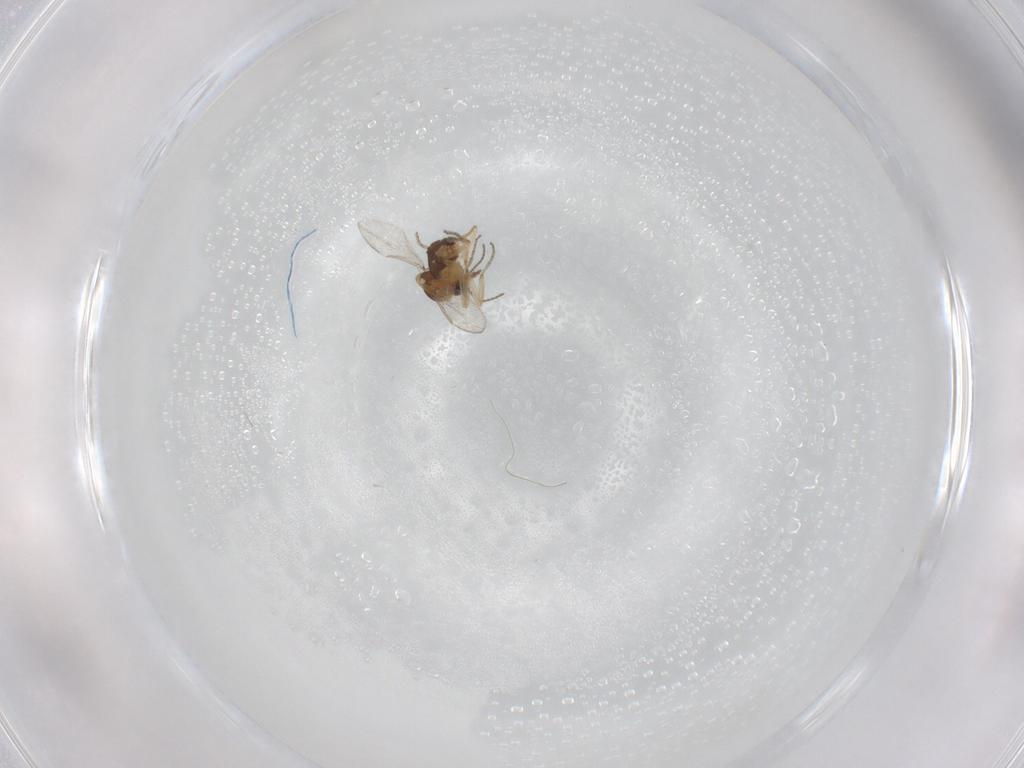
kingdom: Animalia
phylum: Arthropoda
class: Insecta
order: Diptera
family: Ceratopogonidae
